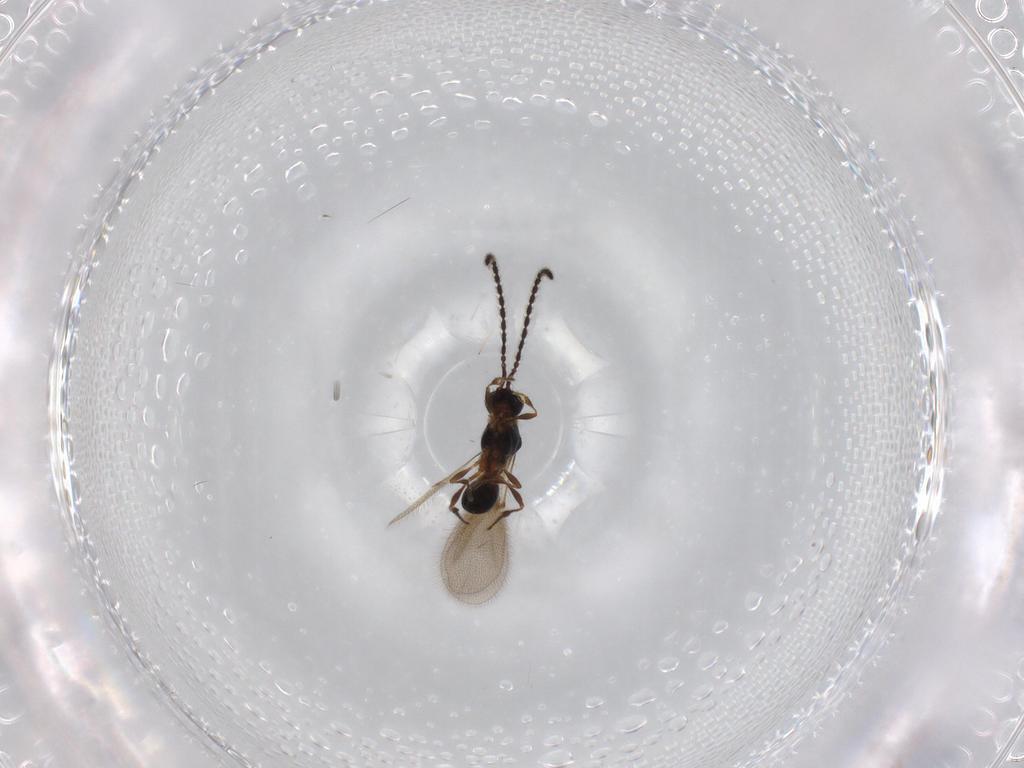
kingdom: Animalia
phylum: Arthropoda
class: Insecta
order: Hymenoptera
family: Diapriidae
